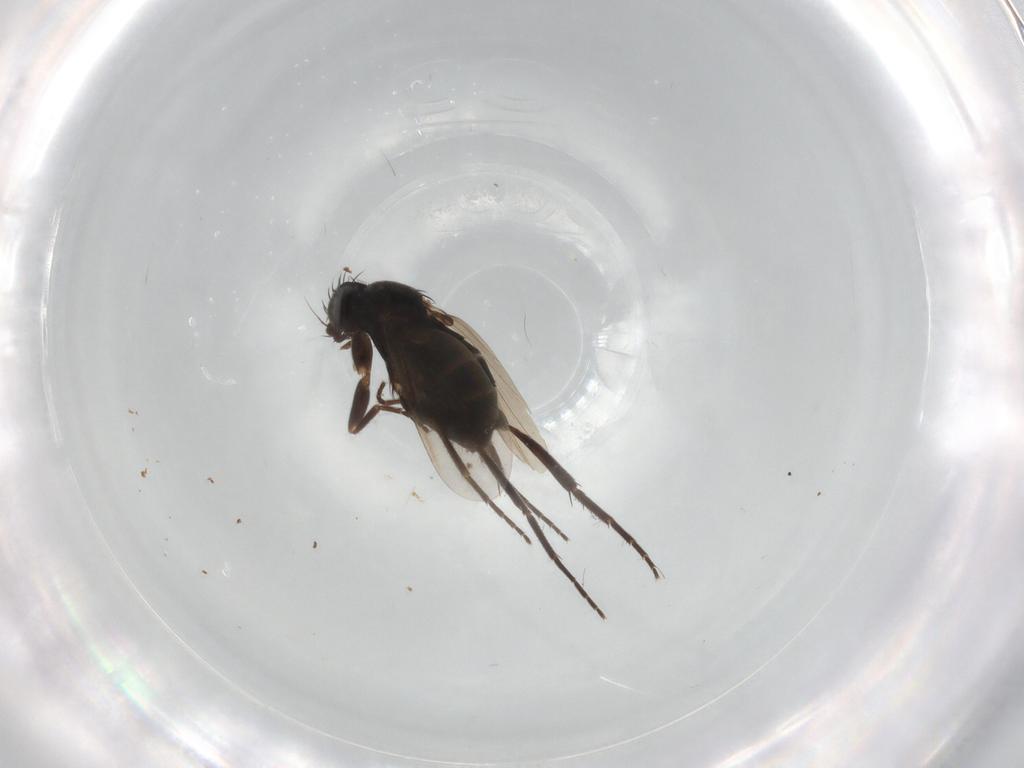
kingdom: Animalia
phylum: Arthropoda
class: Insecta
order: Diptera
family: Chironomidae
